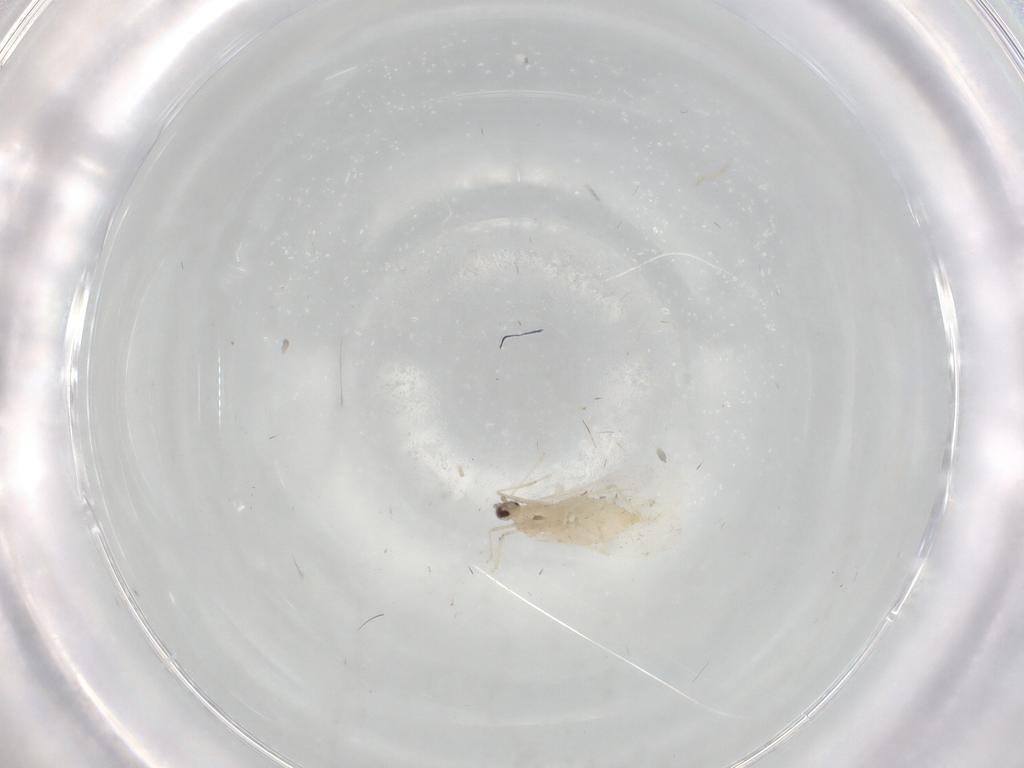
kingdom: Animalia
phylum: Arthropoda
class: Insecta
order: Diptera
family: Cecidomyiidae
